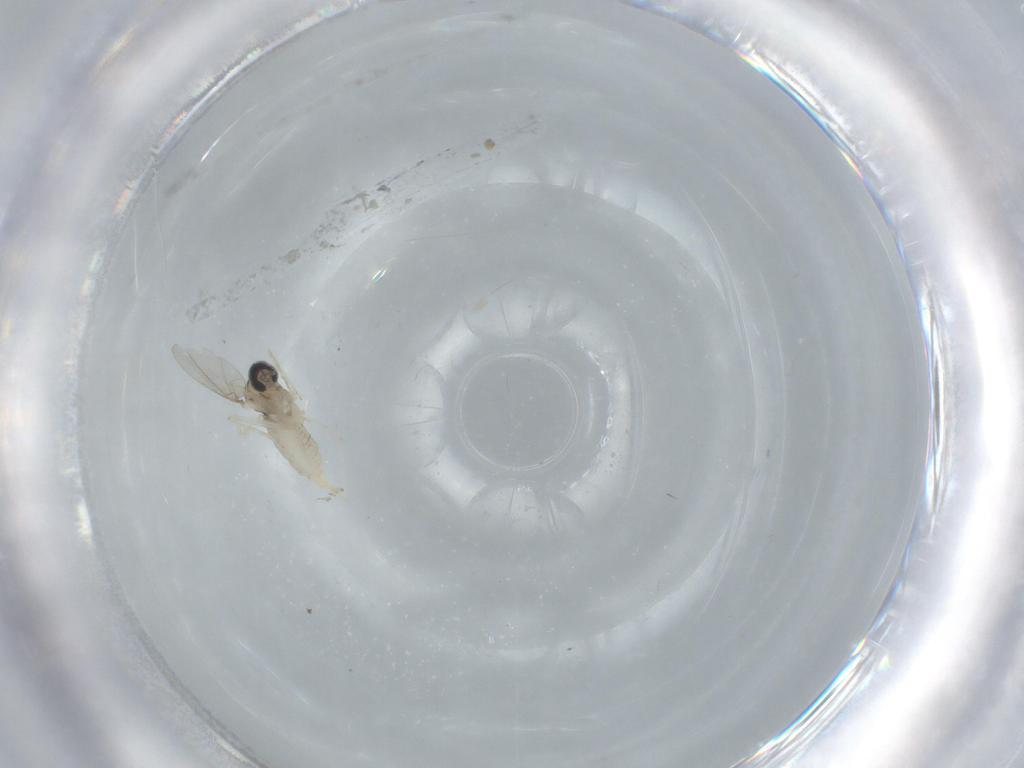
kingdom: Animalia
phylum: Arthropoda
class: Insecta
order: Diptera
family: Cecidomyiidae
